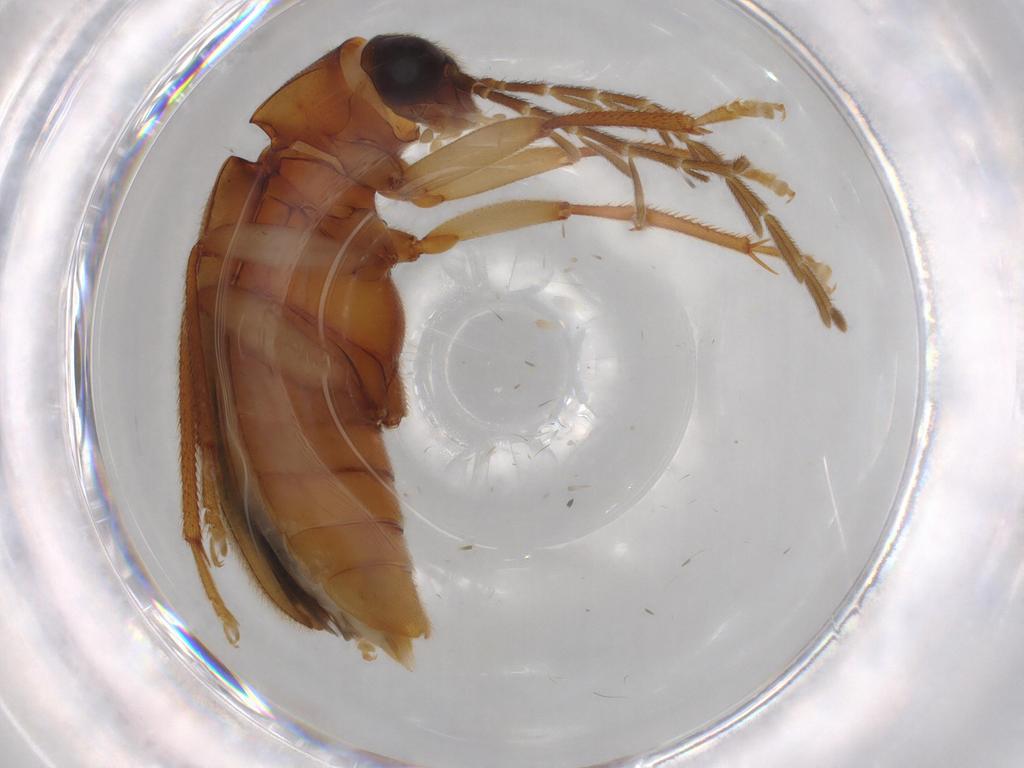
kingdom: Animalia
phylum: Arthropoda
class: Insecta
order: Coleoptera
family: Ptilodactylidae
